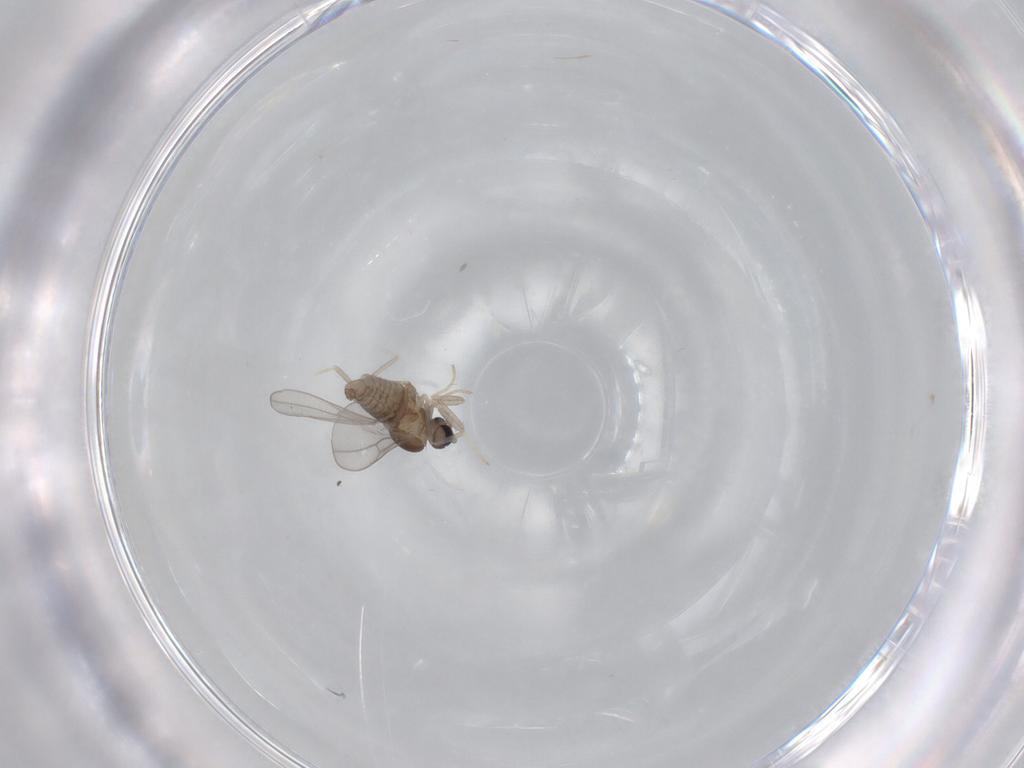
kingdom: Animalia
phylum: Arthropoda
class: Insecta
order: Diptera
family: Cecidomyiidae
